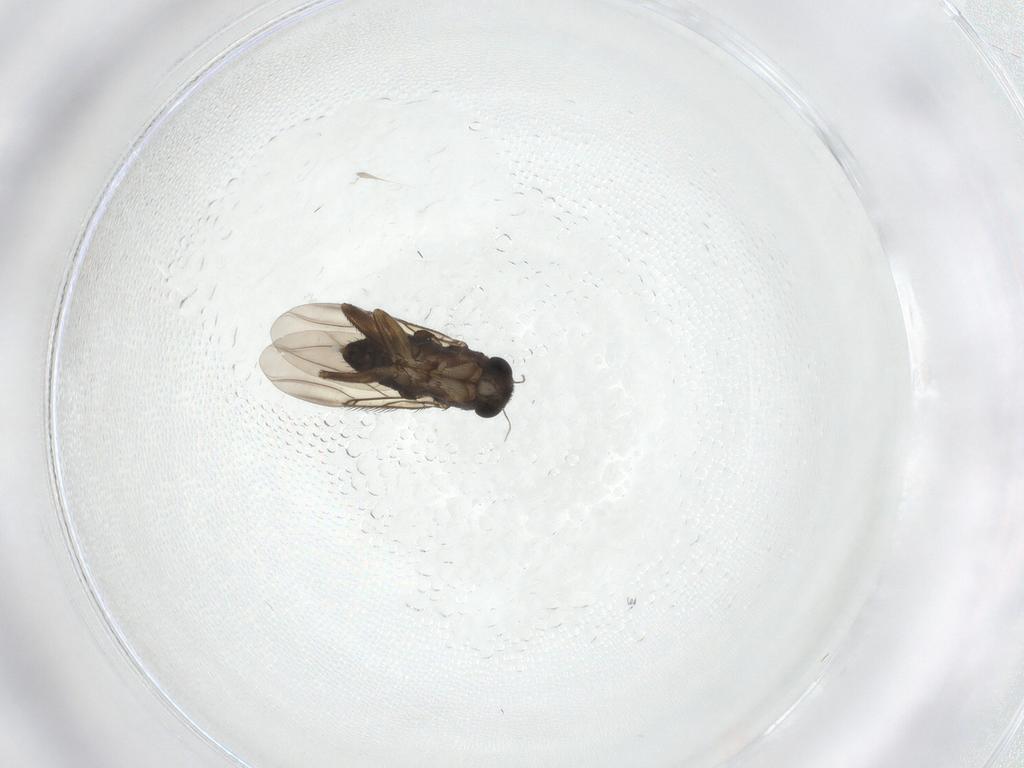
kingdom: Animalia
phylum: Arthropoda
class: Insecta
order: Diptera
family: Phoridae
